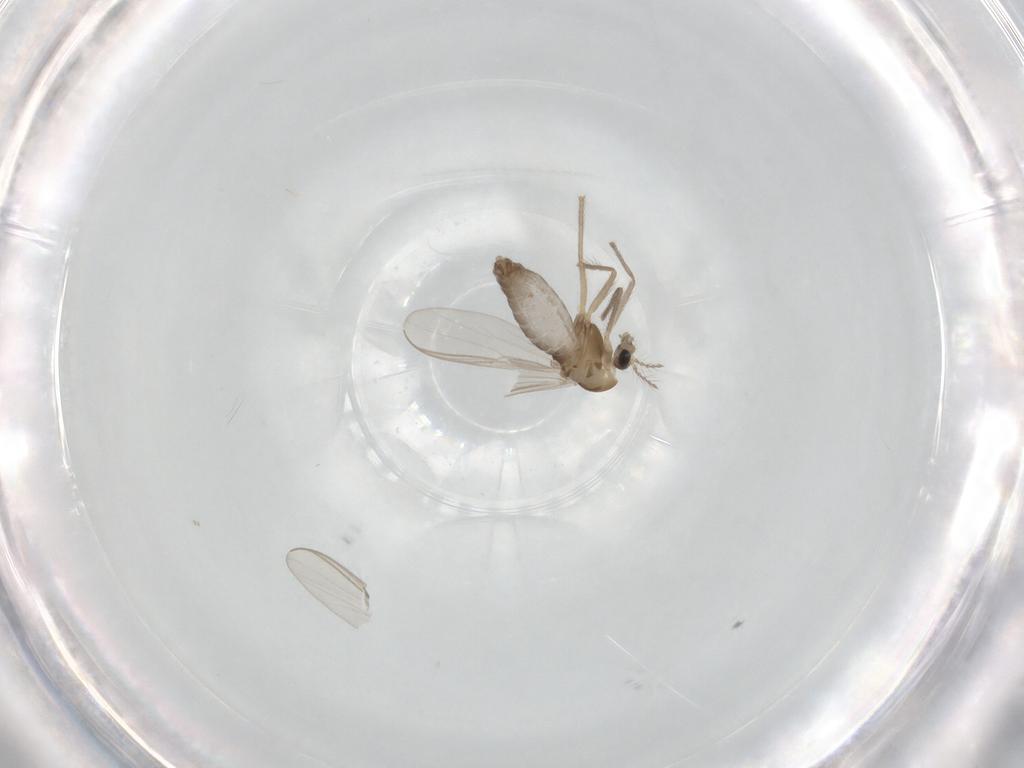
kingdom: Animalia
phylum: Arthropoda
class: Insecta
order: Diptera
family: Chironomidae
